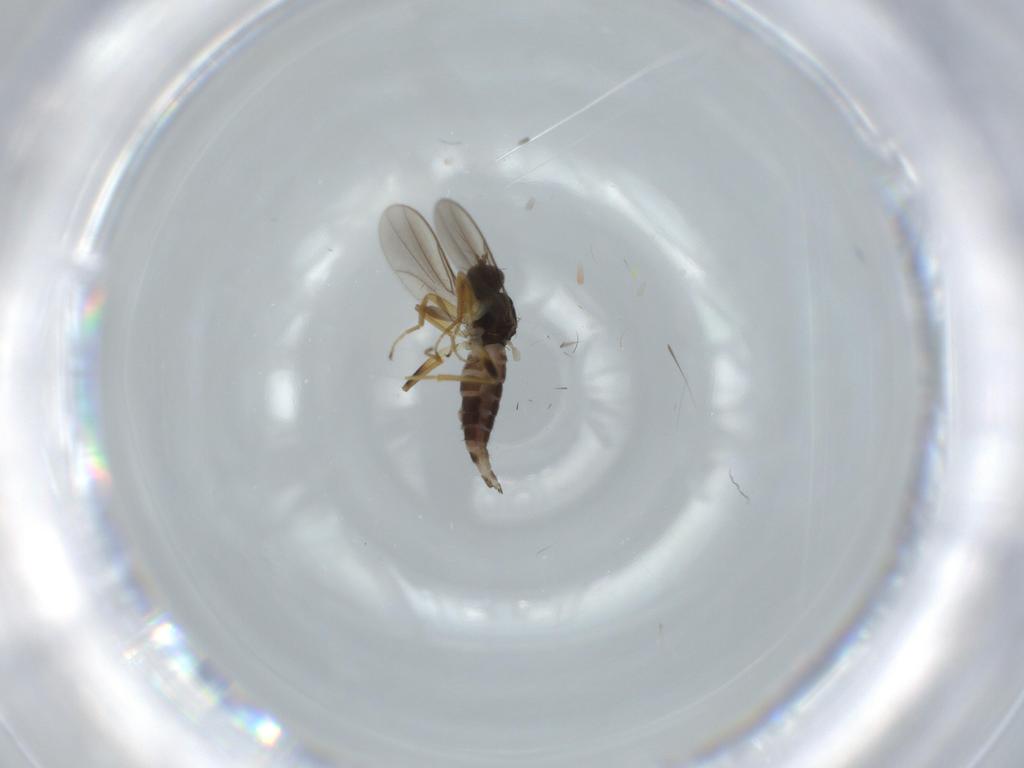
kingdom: Animalia
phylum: Arthropoda
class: Insecta
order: Diptera
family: Hybotidae
